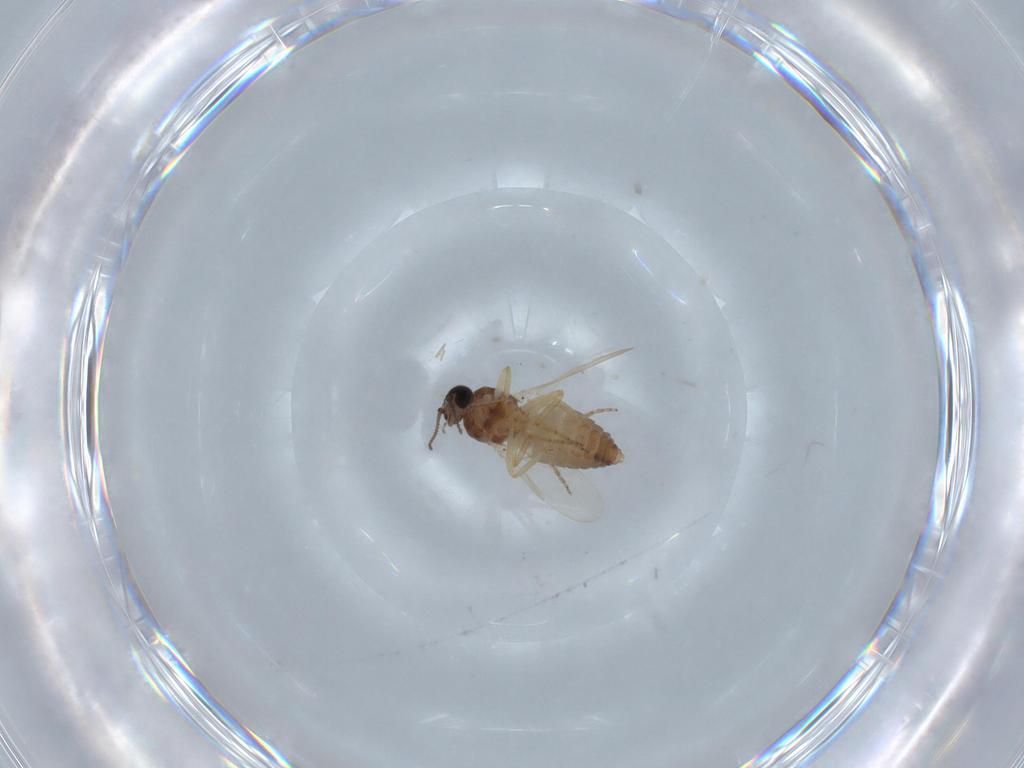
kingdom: Animalia
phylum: Arthropoda
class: Insecta
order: Diptera
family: Ceratopogonidae
